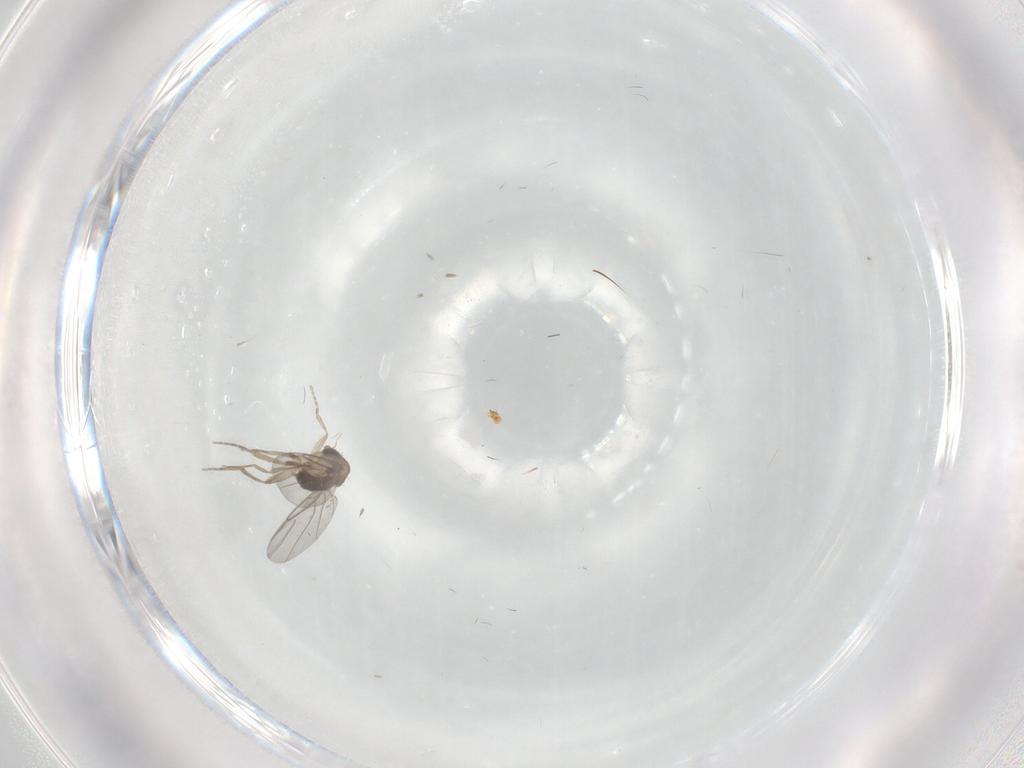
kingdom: Animalia
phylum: Arthropoda
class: Insecta
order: Diptera
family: Phoridae
